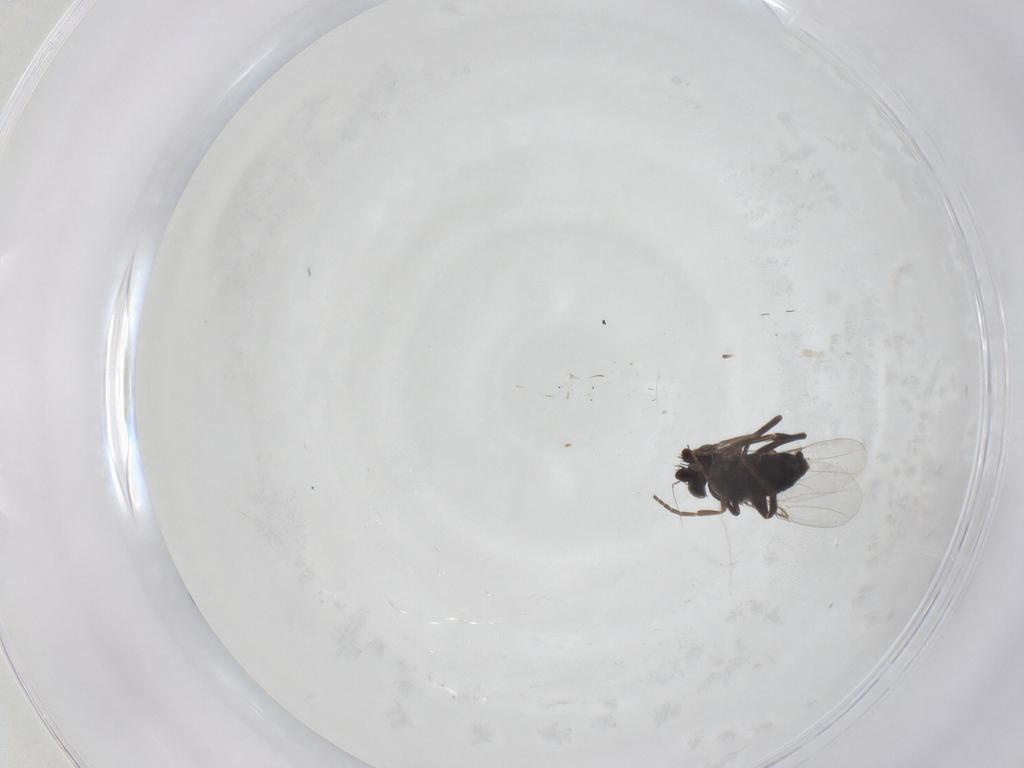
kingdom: Animalia
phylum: Arthropoda
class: Insecta
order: Diptera
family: Phoridae
